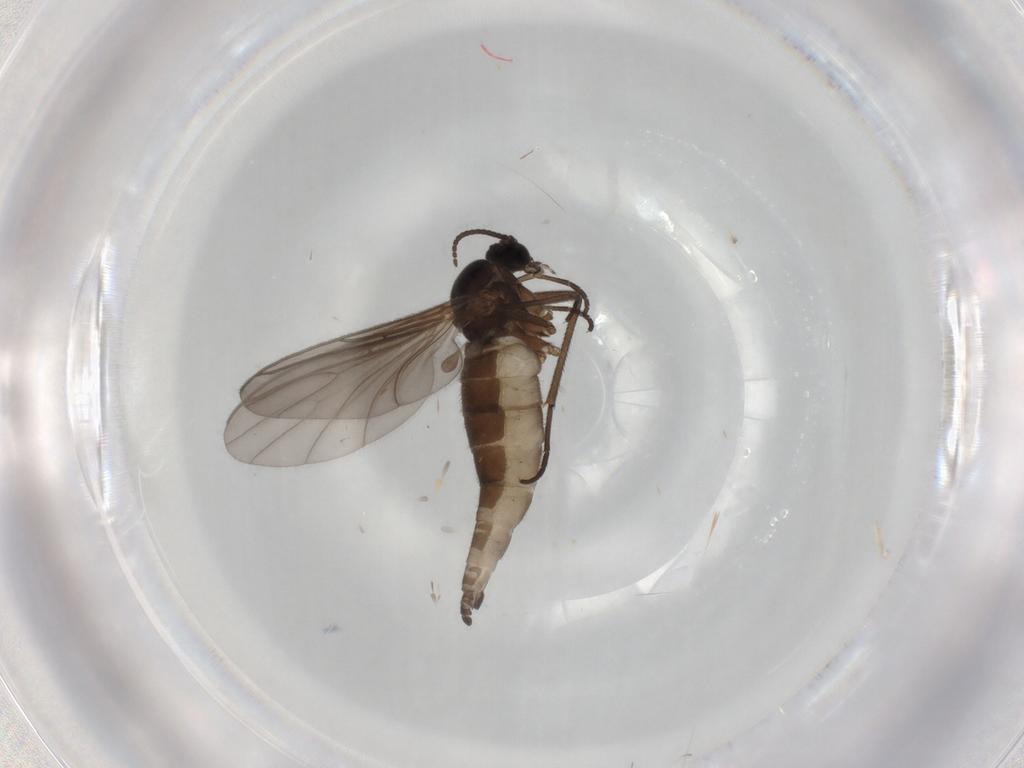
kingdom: Animalia
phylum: Arthropoda
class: Insecta
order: Diptera
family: Sciaridae
